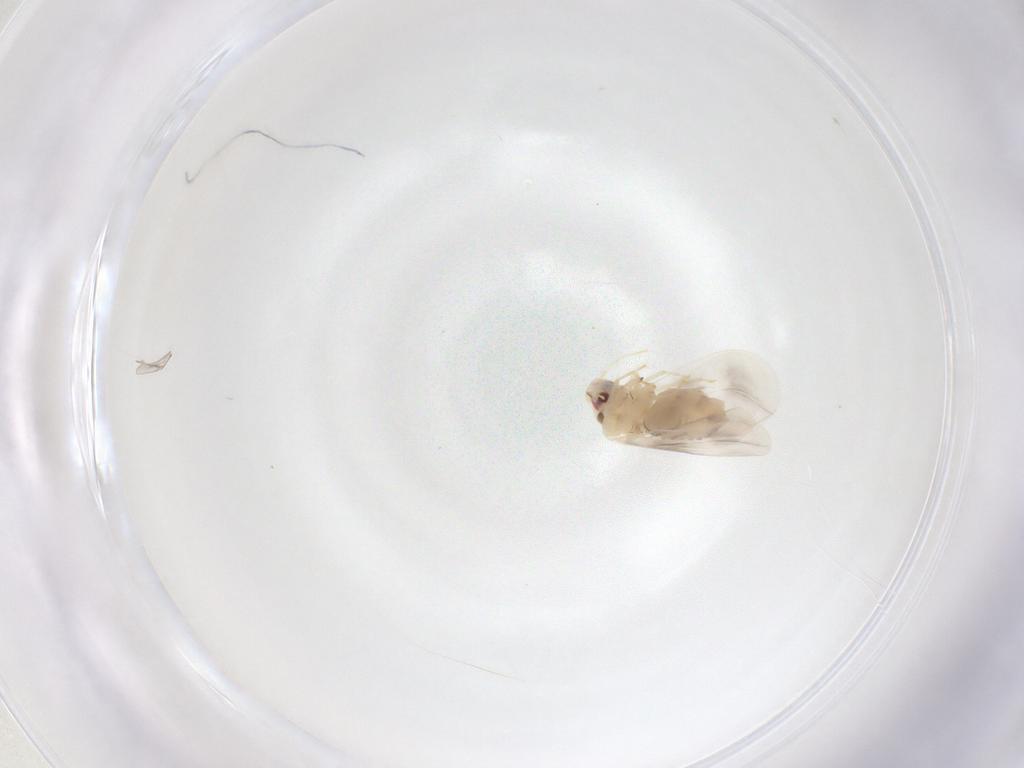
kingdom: Animalia
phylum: Arthropoda
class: Insecta
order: Hemiptera
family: Aleyrodidae
